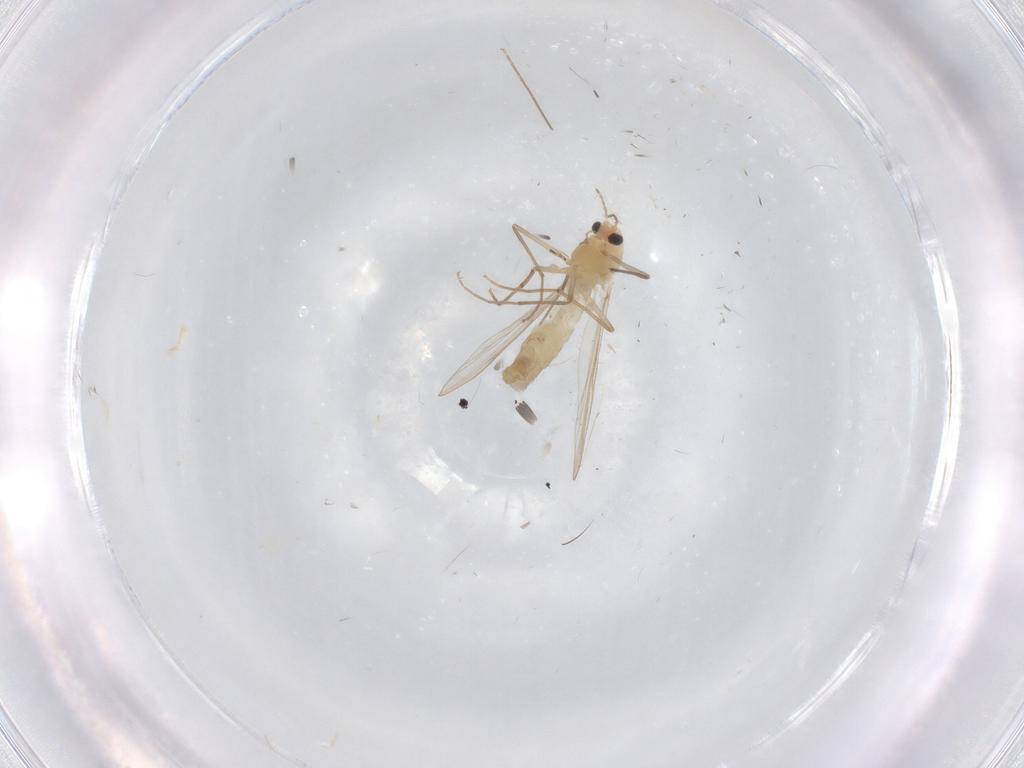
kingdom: Animalia
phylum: Arthropoda
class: Insecta
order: Diptera
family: Chironomidae
